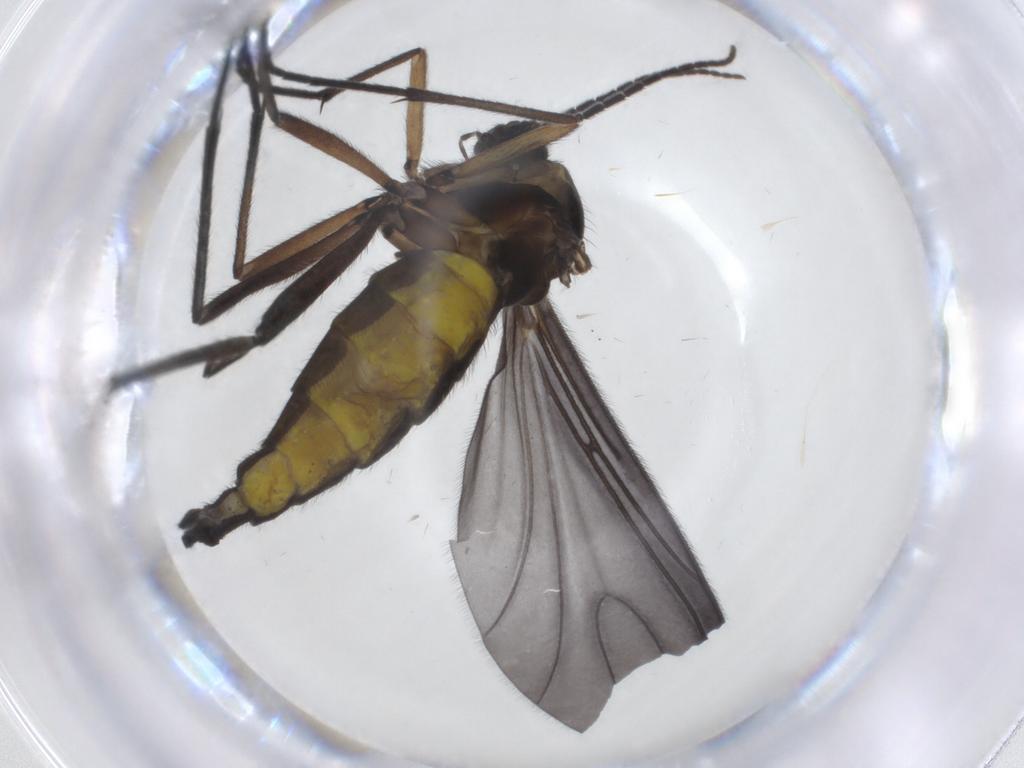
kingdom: Animalia
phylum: Arthropoda
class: Insecta
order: Diptera
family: Sciaridae
